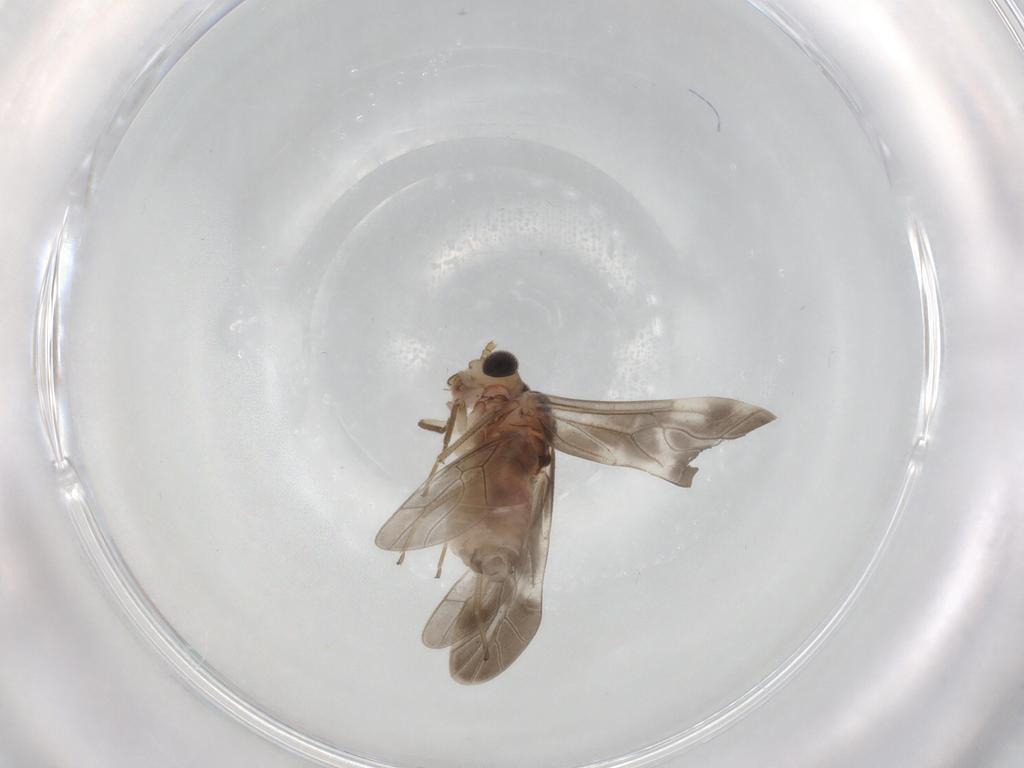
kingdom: Animalia
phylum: Arthropoda
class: Insecta
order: Psocodea
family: Caeciliusidae
